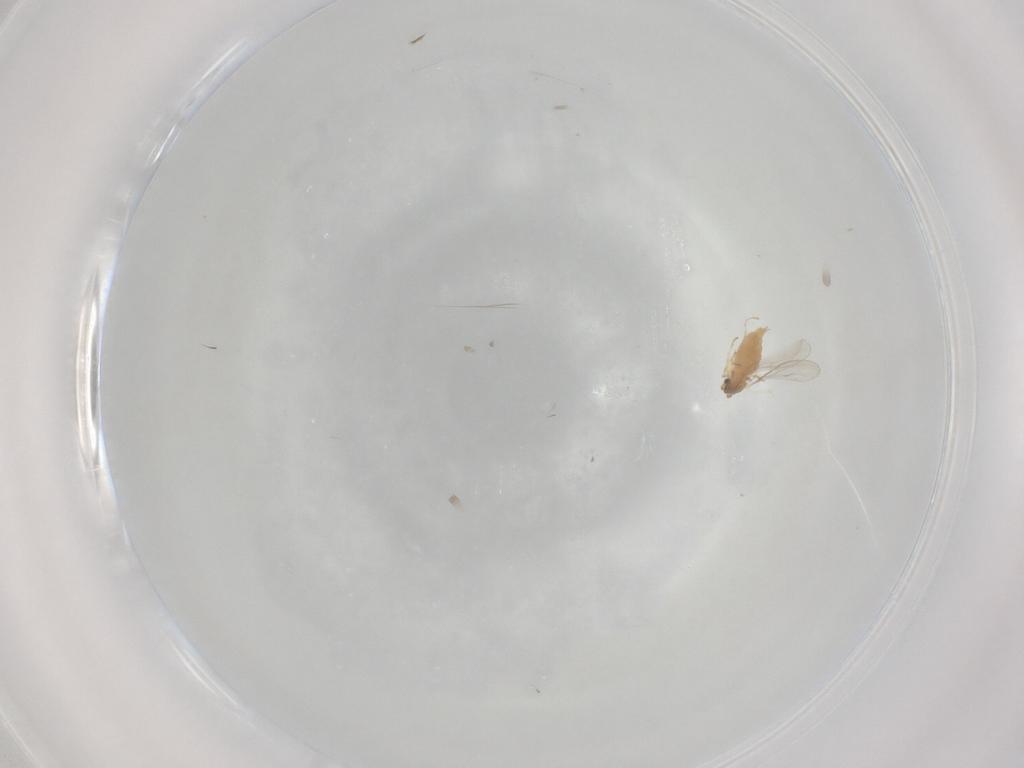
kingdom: Animalia
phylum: Arthropoda
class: Insecta
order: Diptera
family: Cecidomyiidae
